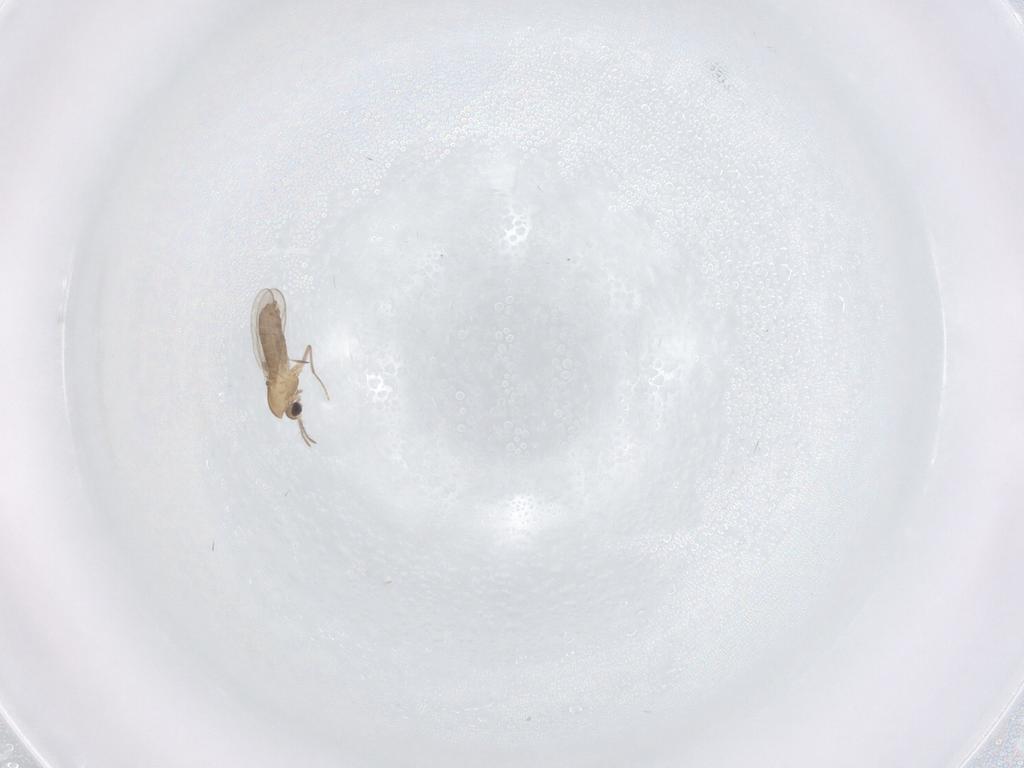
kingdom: Animalia
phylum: Arthropoda
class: Insecta
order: Diptera
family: Chironomidae
